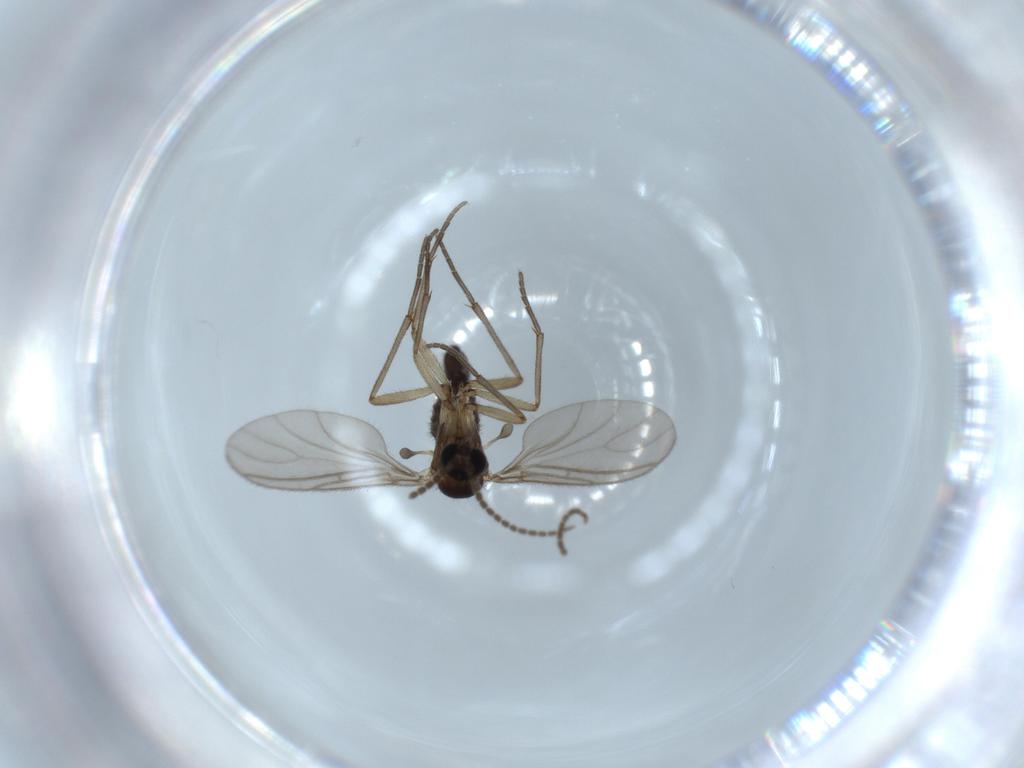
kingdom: Animalia
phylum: Arthropoda
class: Insecta
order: Diptera
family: Sciaridae
